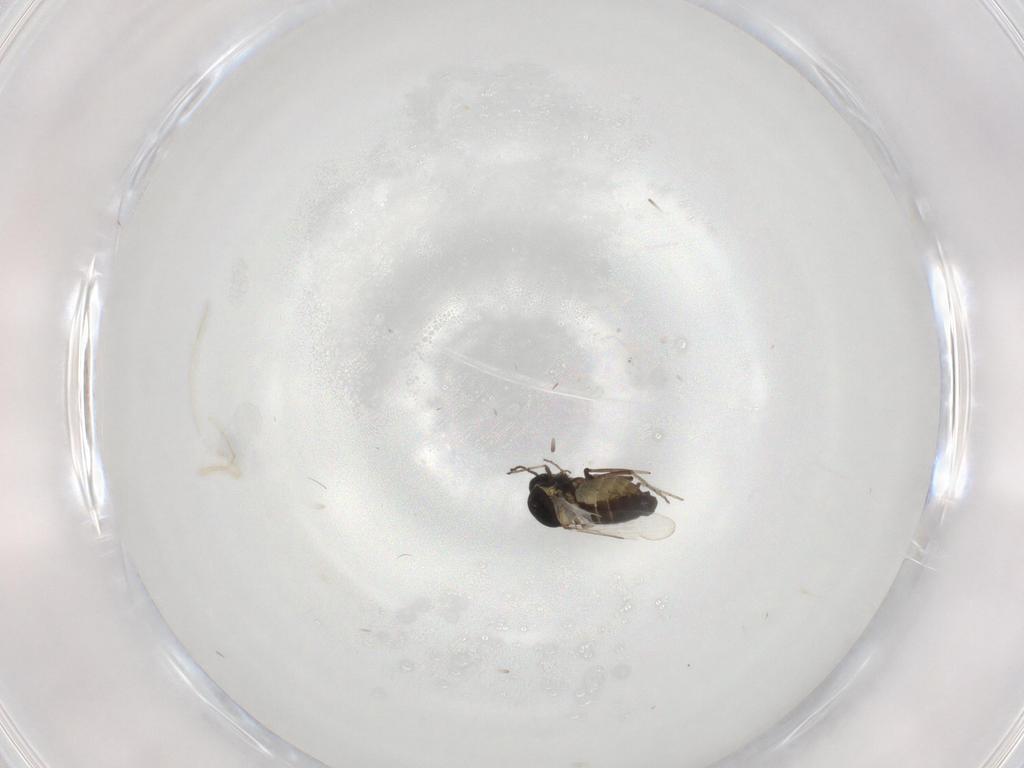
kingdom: Animalia
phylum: Arthropoda
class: Insecta
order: Diptera
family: Ceratopogonidae
